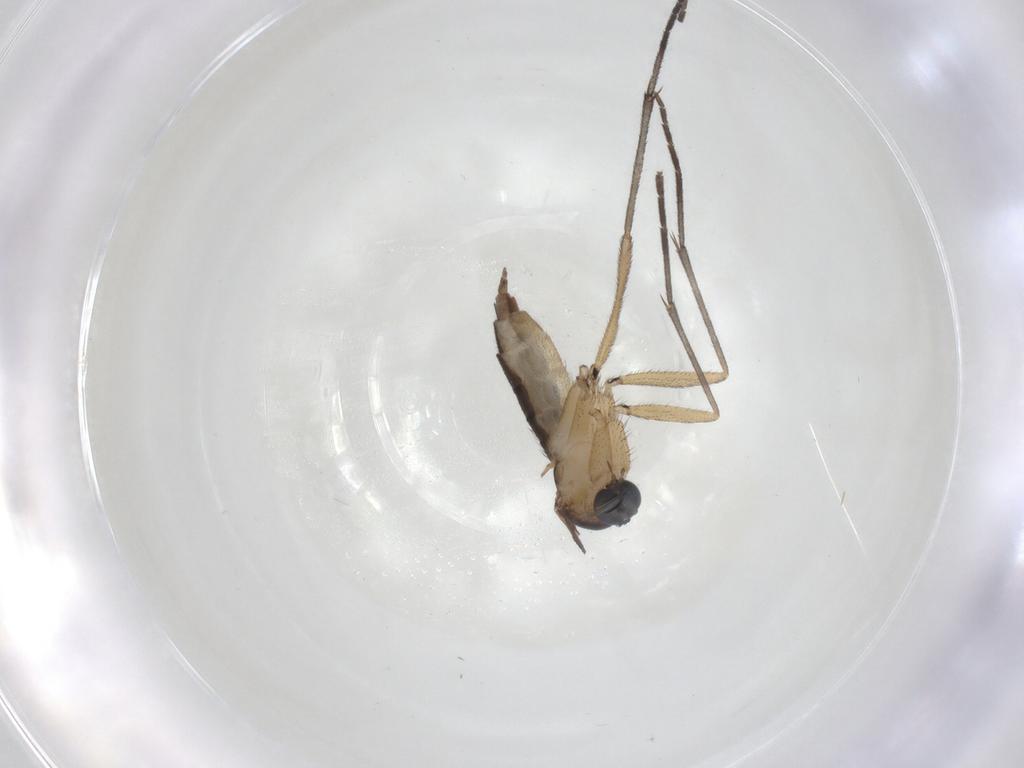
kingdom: Animalia
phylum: Arthropoda
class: Insecta
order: Diptera
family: Sciaridae
